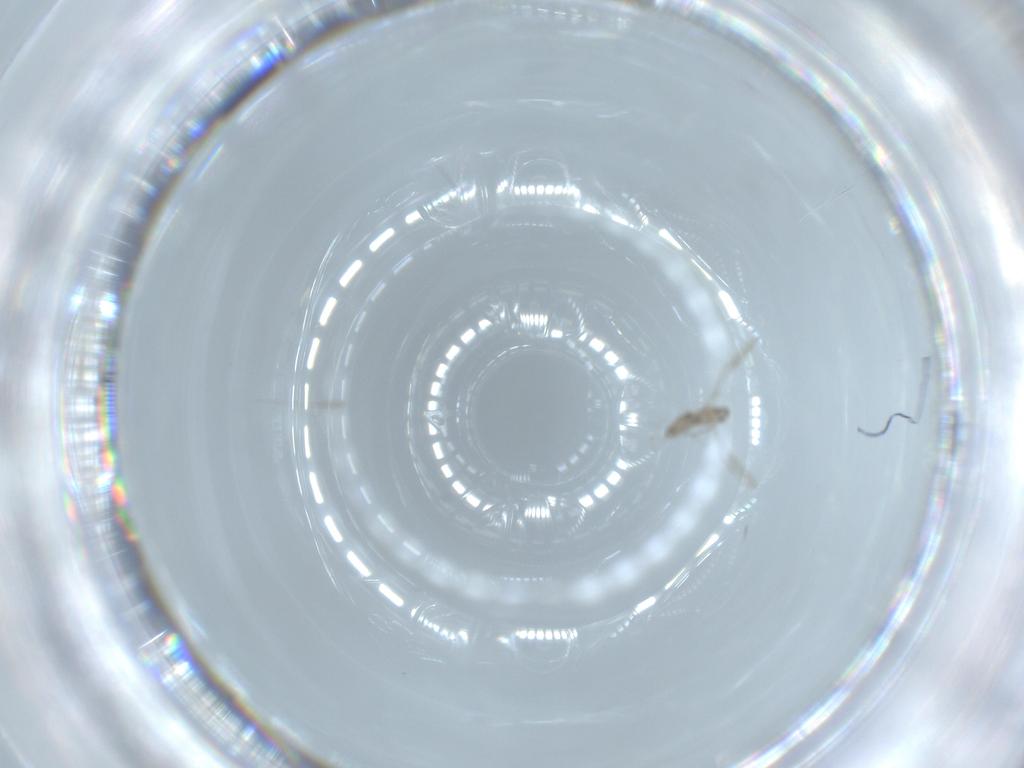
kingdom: Animalia
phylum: Arthropoda
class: Insecta
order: Diptera
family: Cecidomyiidae
